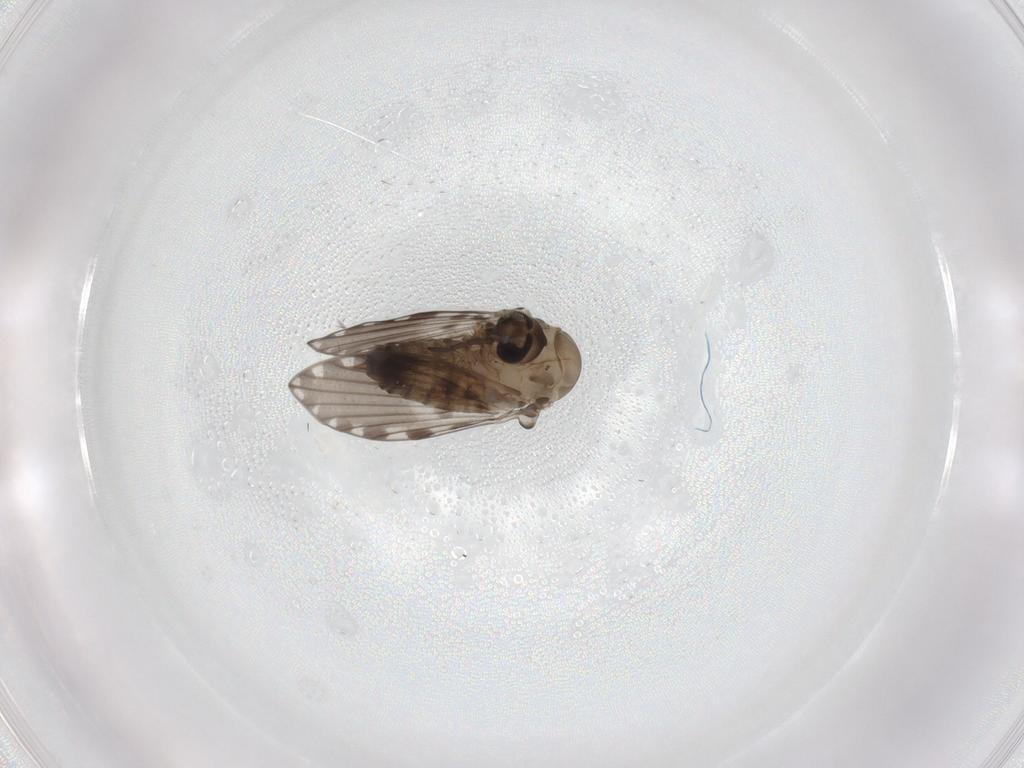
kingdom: Animalia
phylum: Arthropoda
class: Insecta
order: Diptera
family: Psychodidae
